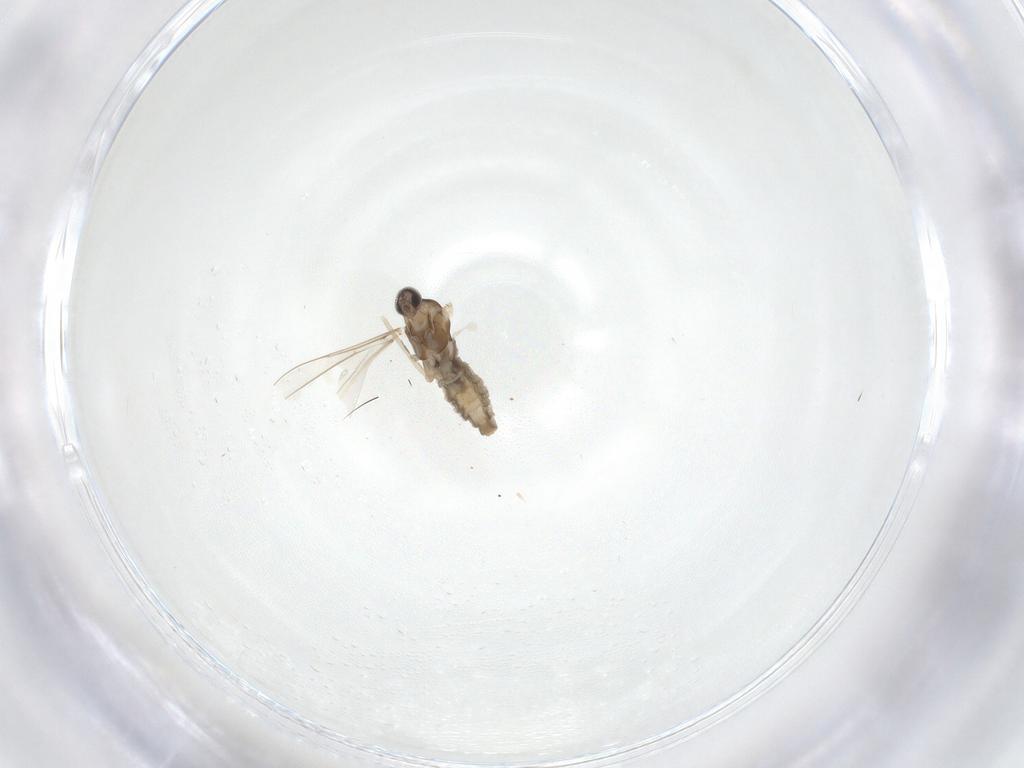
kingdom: Animalia
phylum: Arthropoda
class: Insecta
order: Diptera
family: Cecidomyiidae
